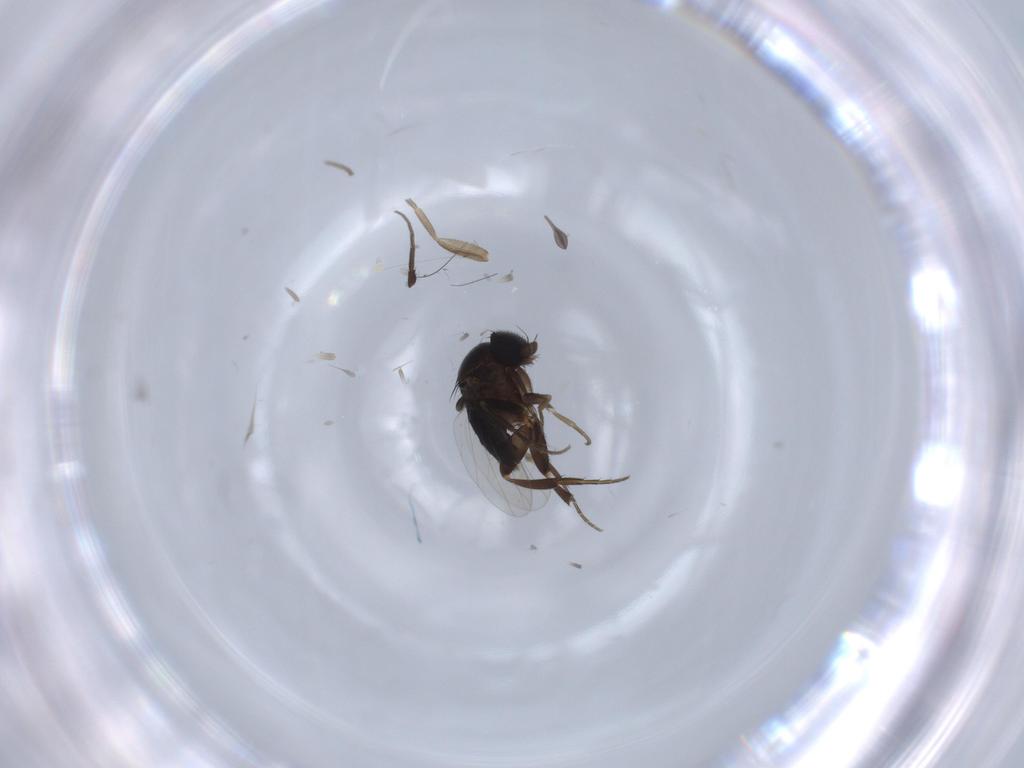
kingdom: Animalia
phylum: Arthropoda
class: Insecta
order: Diptera
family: Phoridae
